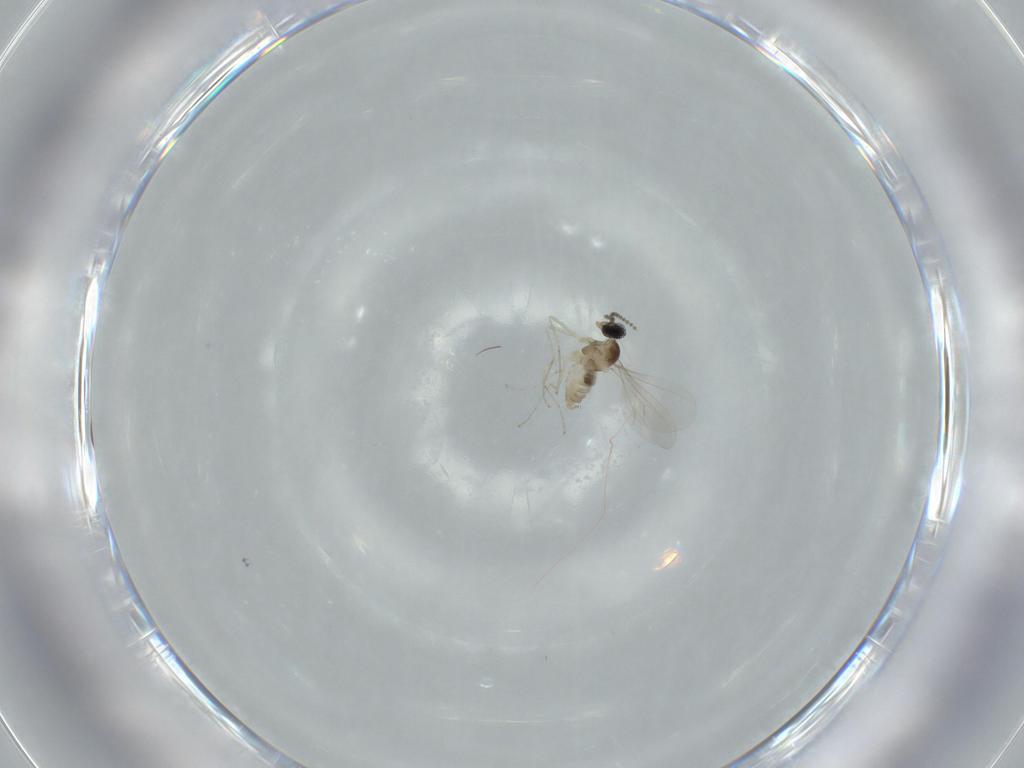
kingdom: Animalia
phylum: Arthropoda
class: Insecta
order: Diptera
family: Cecidomyiidae
